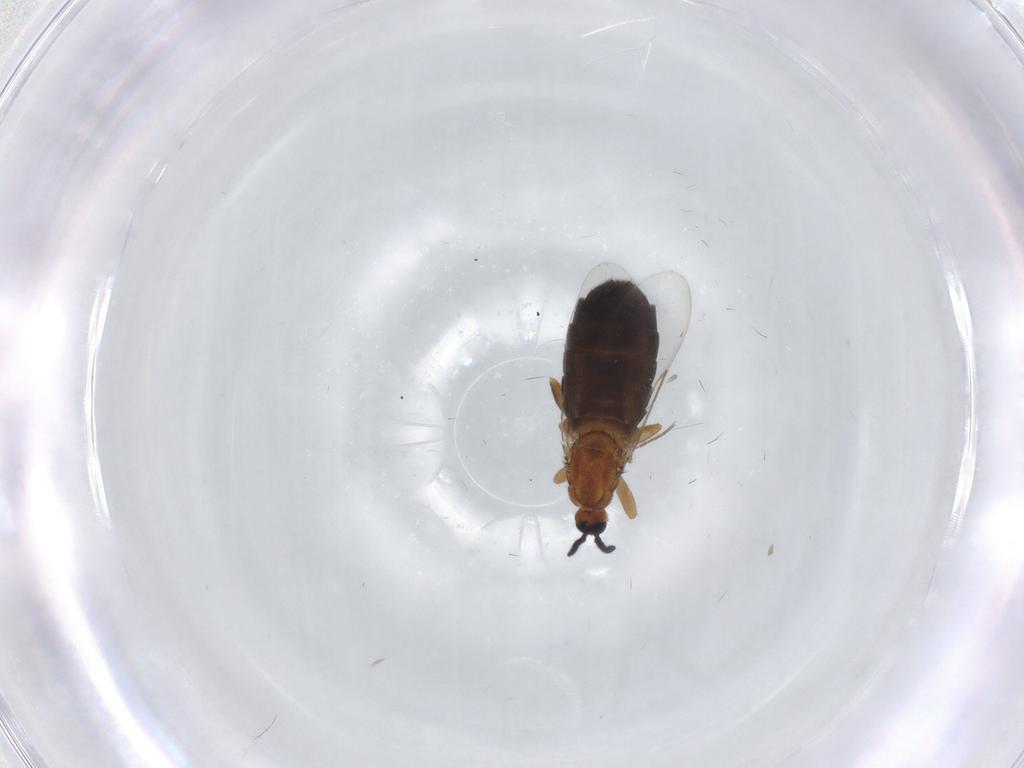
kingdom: Animalia
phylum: Arthropoda
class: Insecta
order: Diptera
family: Scatopsidae
